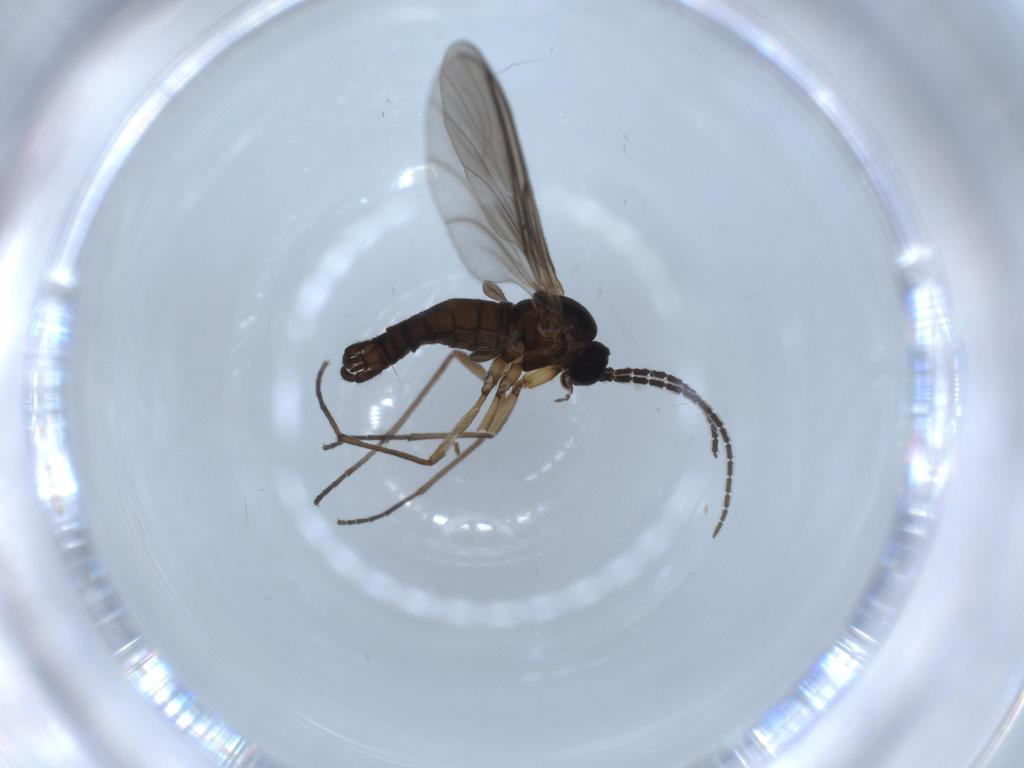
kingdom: Animalia
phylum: Arthropoda
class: Insecta
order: Diptera
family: Sciaridae
